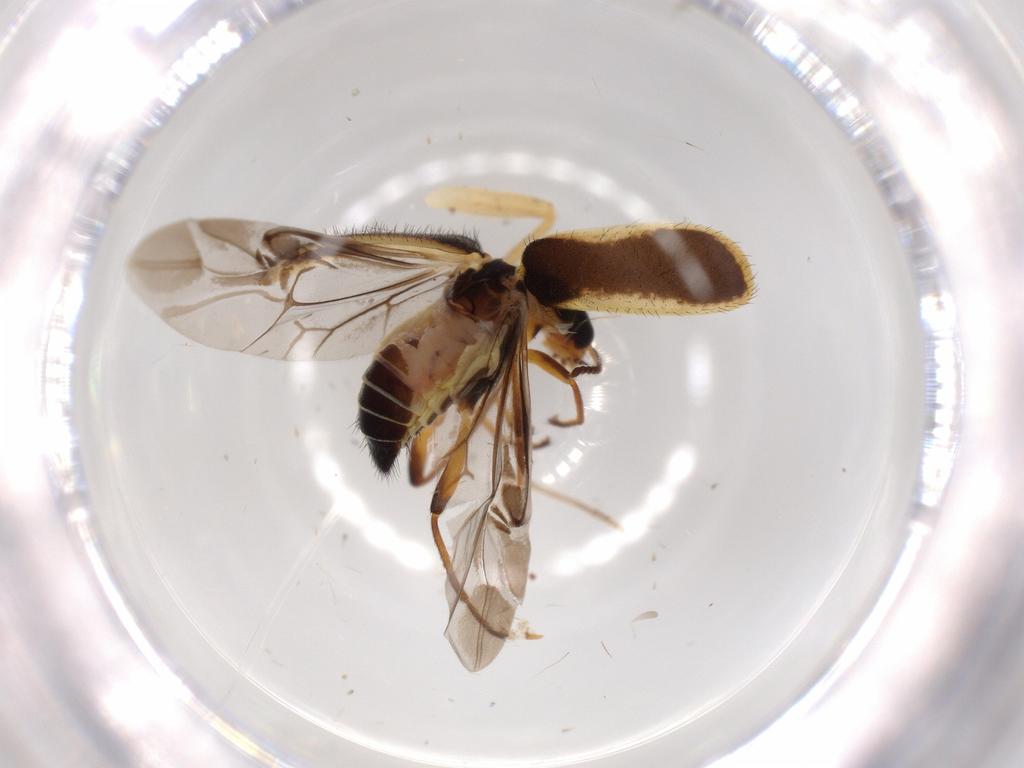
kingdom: Animalia
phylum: Arthropoda
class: Insecta
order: Coleoptera
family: Melyridae
